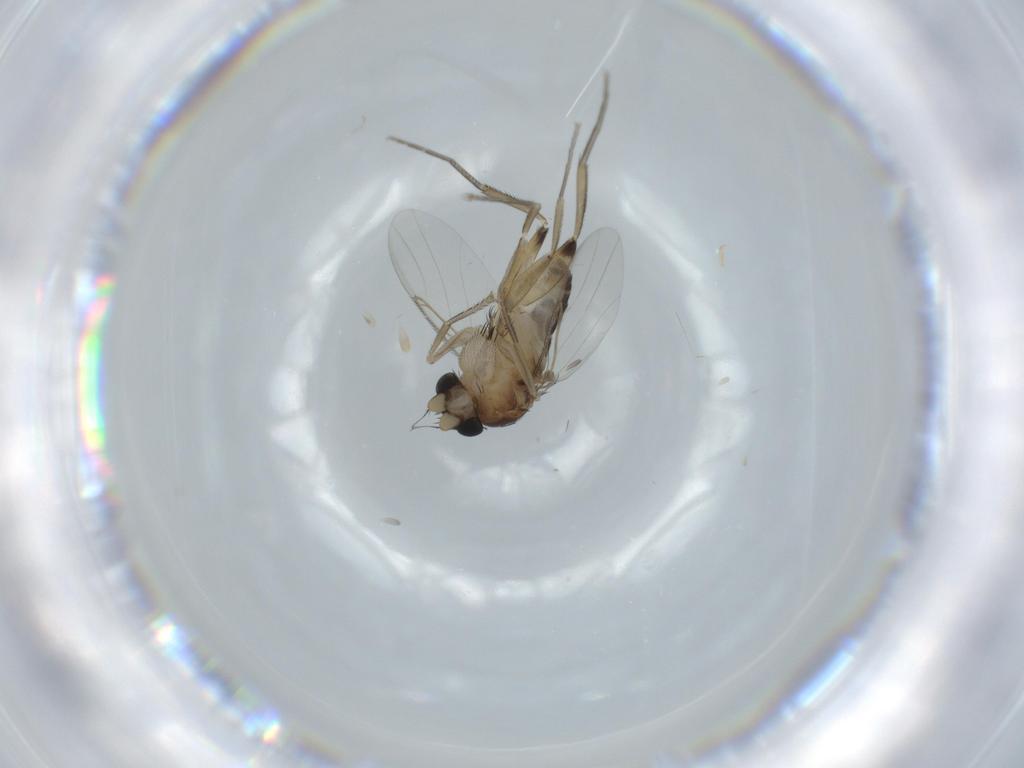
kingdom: Animalia
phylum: Arthropoda
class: Insecta
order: Diptera
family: Phoridae
